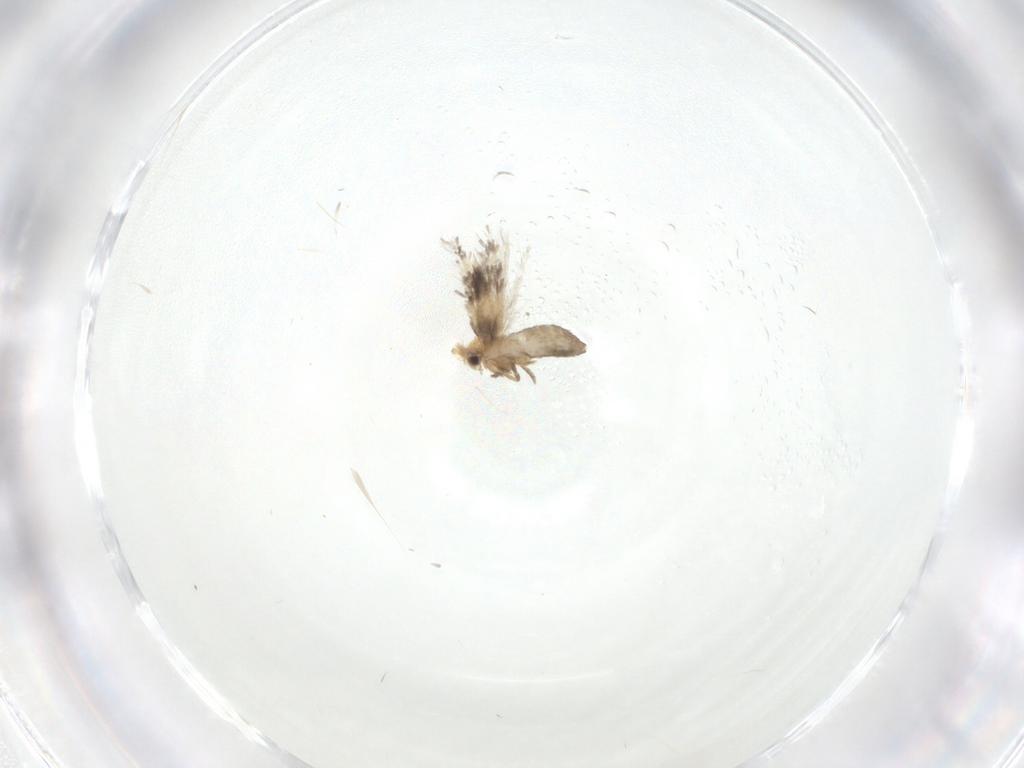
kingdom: Animalia
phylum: Arthropoda
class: Insecta
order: Lepidoptera
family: Nepticulidae
